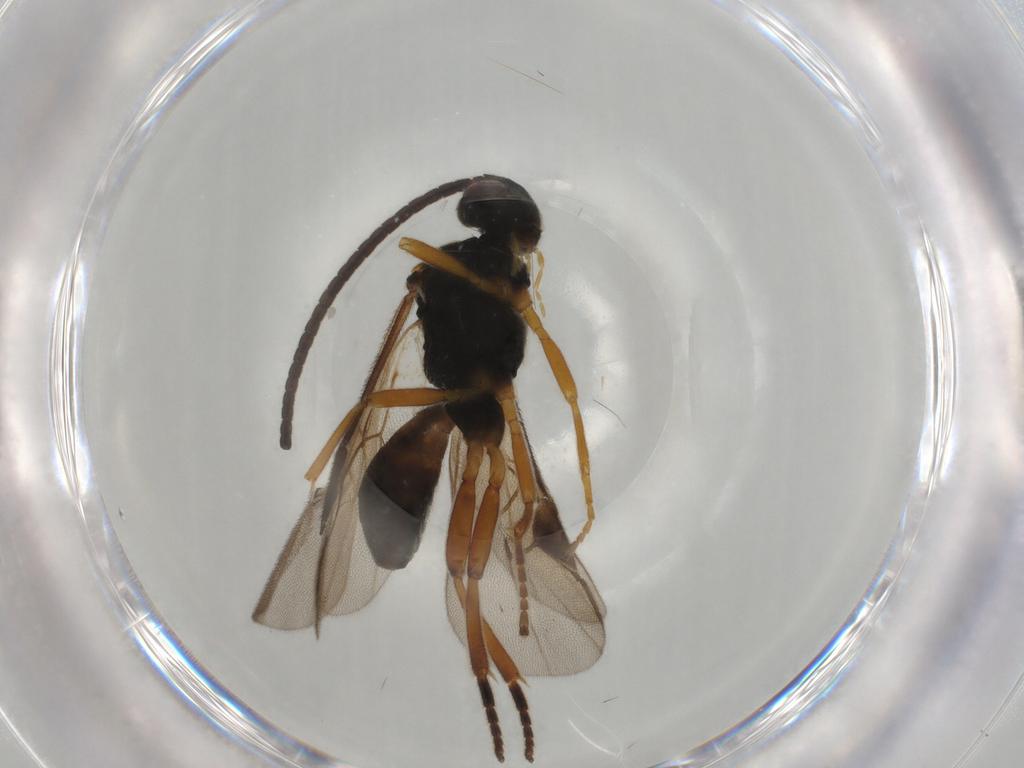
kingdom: Animalia
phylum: Arthropoda
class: Insecta
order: Hymenoptera
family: Braconidae
